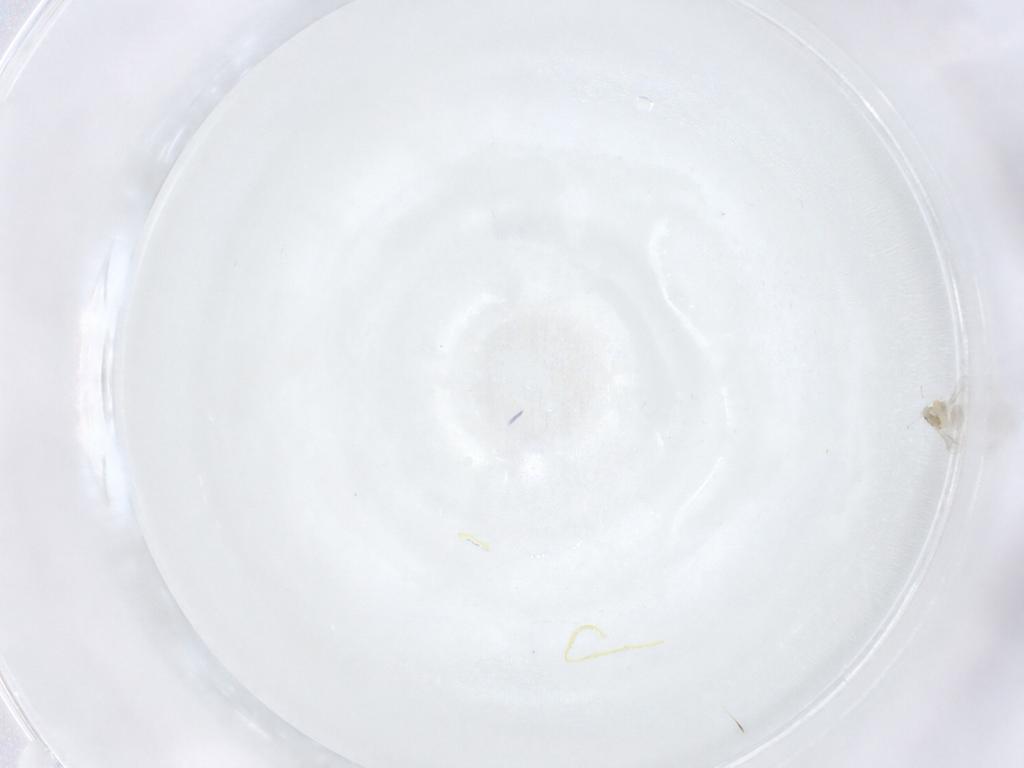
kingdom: Animalia
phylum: Arthropoda
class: Insecta
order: Diptera
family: Cecidomyiidae
